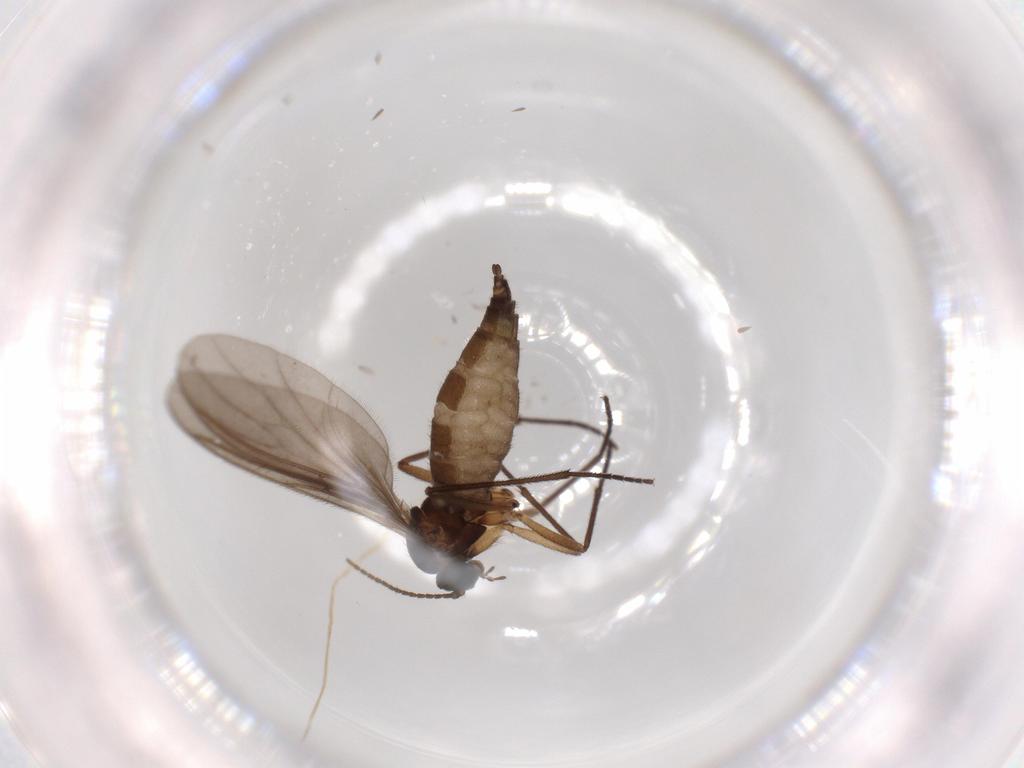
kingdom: Animalia
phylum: Arthropoda
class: Insecta
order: Diptera
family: Sciaridae
